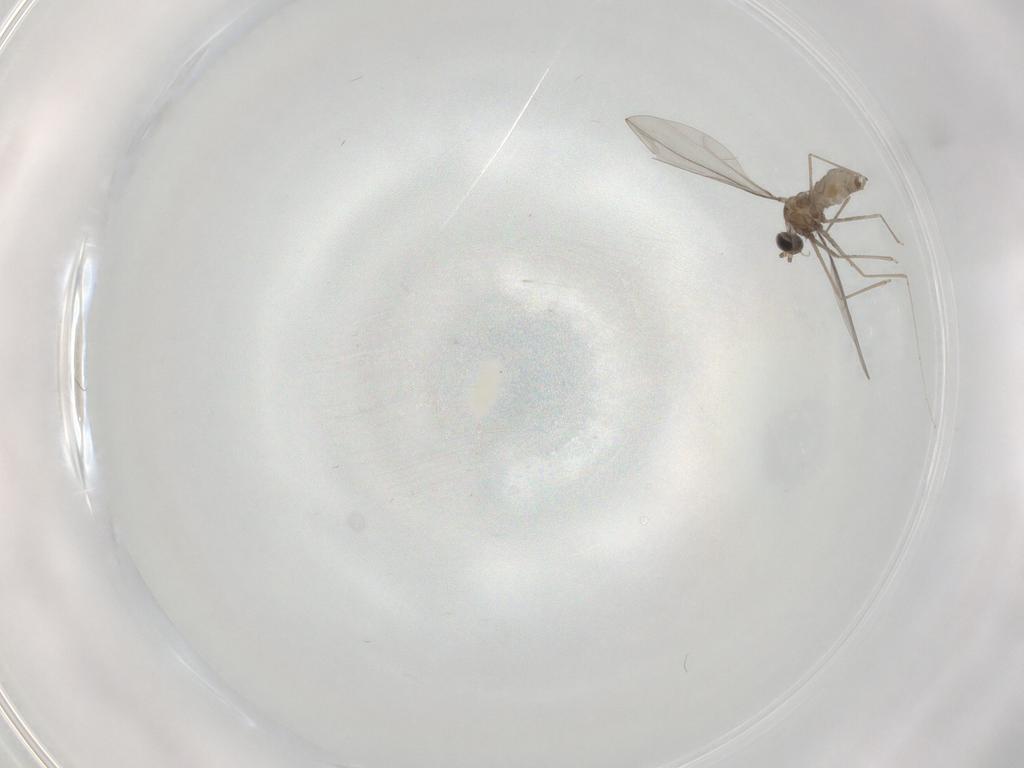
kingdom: Animalia
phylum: Arthropoda
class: Insecta
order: Diptera
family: Cecidomyiidae
